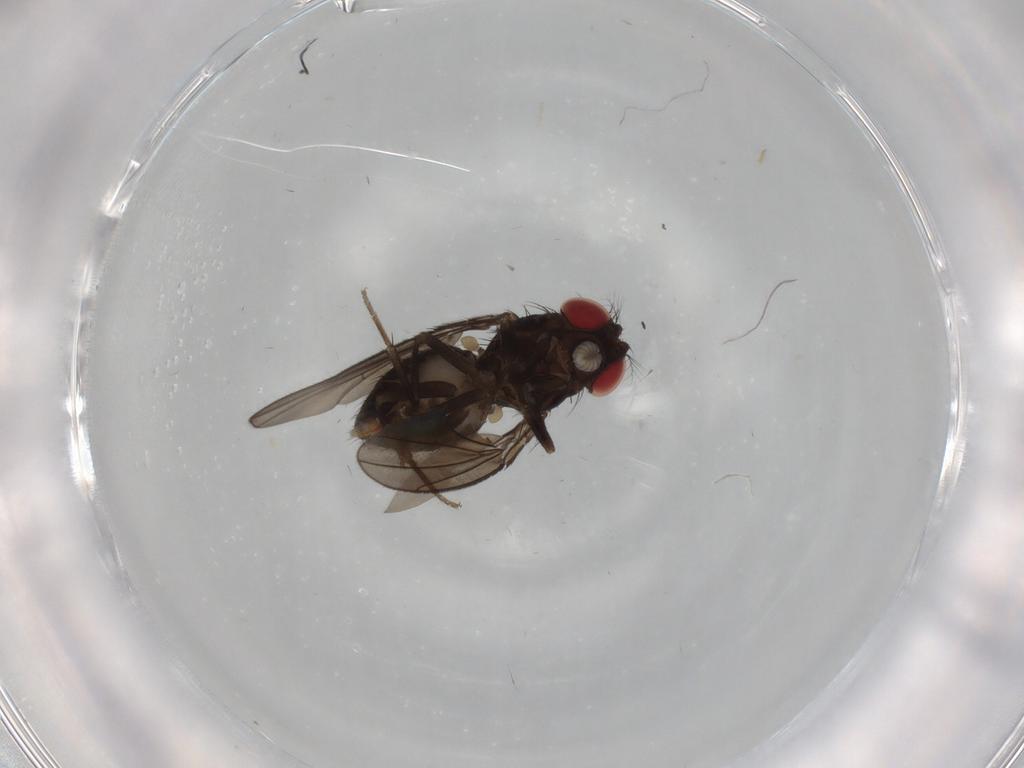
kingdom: Animalia
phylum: Arthropoda
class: Insecta
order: Diptera
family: Drosophilidae
